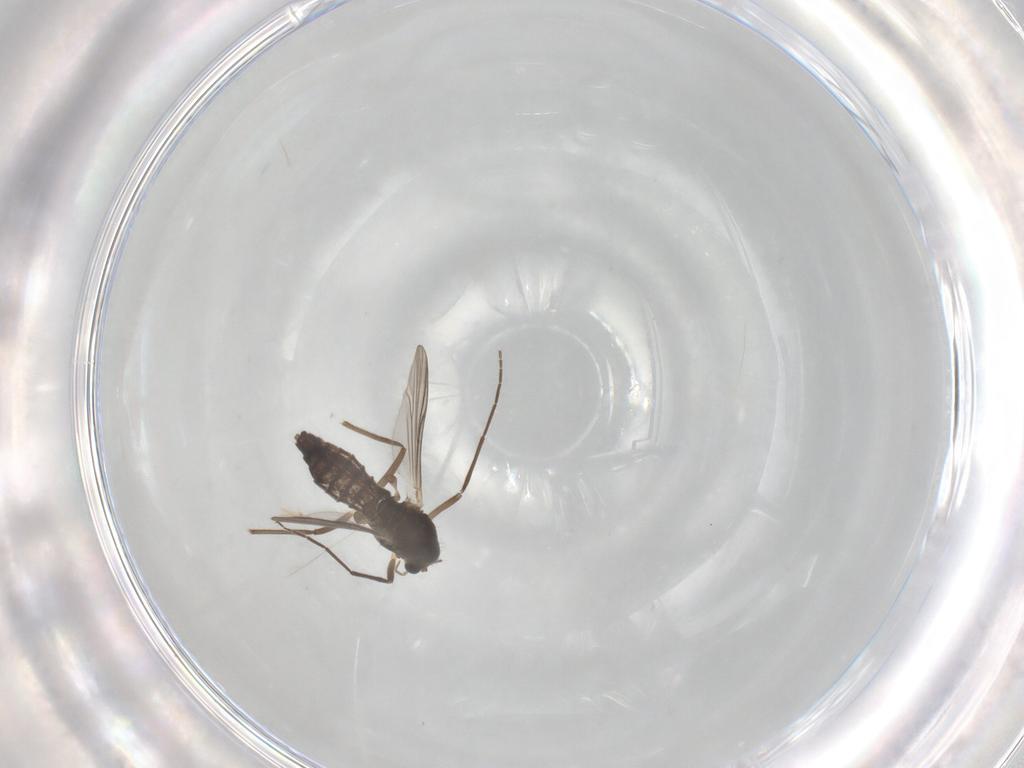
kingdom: Animalia
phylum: Arthropoda
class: Insecta
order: Diptera
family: Chironomidae
